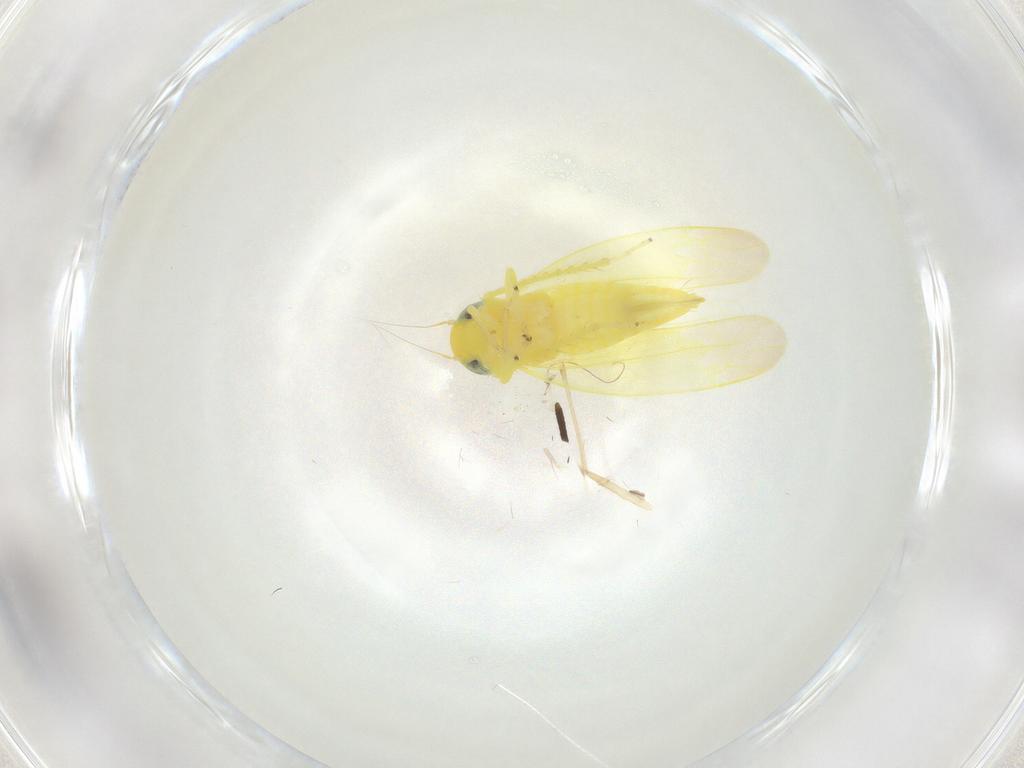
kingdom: Animalia
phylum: Arthropoda
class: Insecta
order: Hemiptera
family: Cicadellidae
